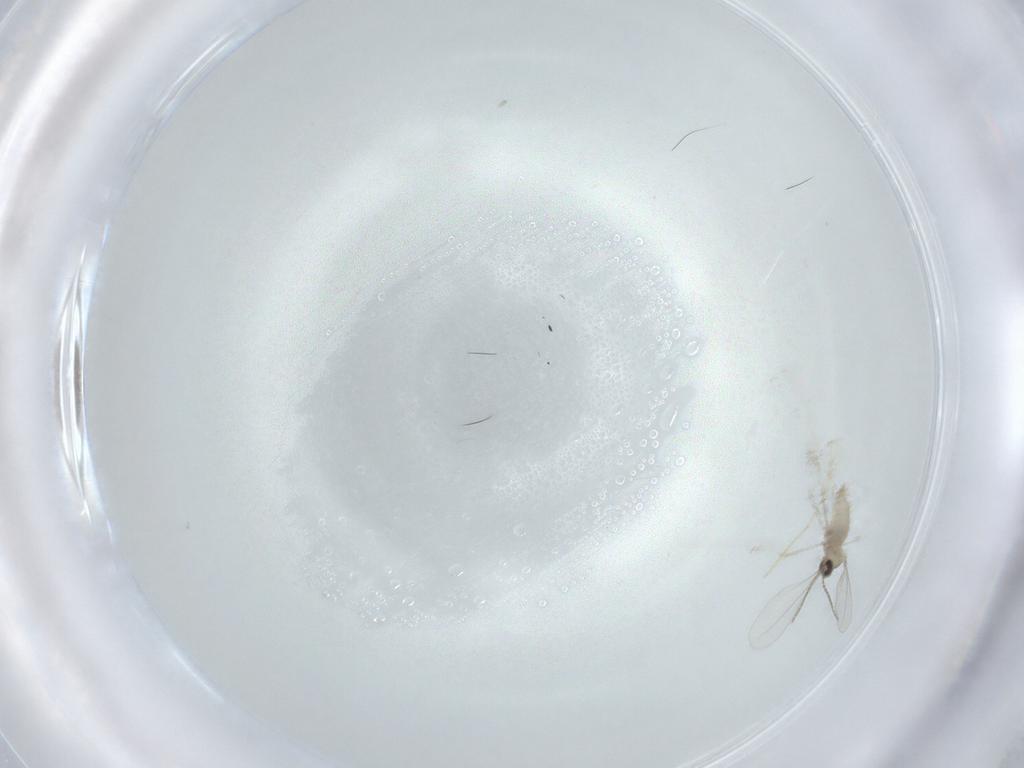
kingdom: Animalia
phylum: Arthropoda
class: Insecta
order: Diptera
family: Cecidomyiidae
